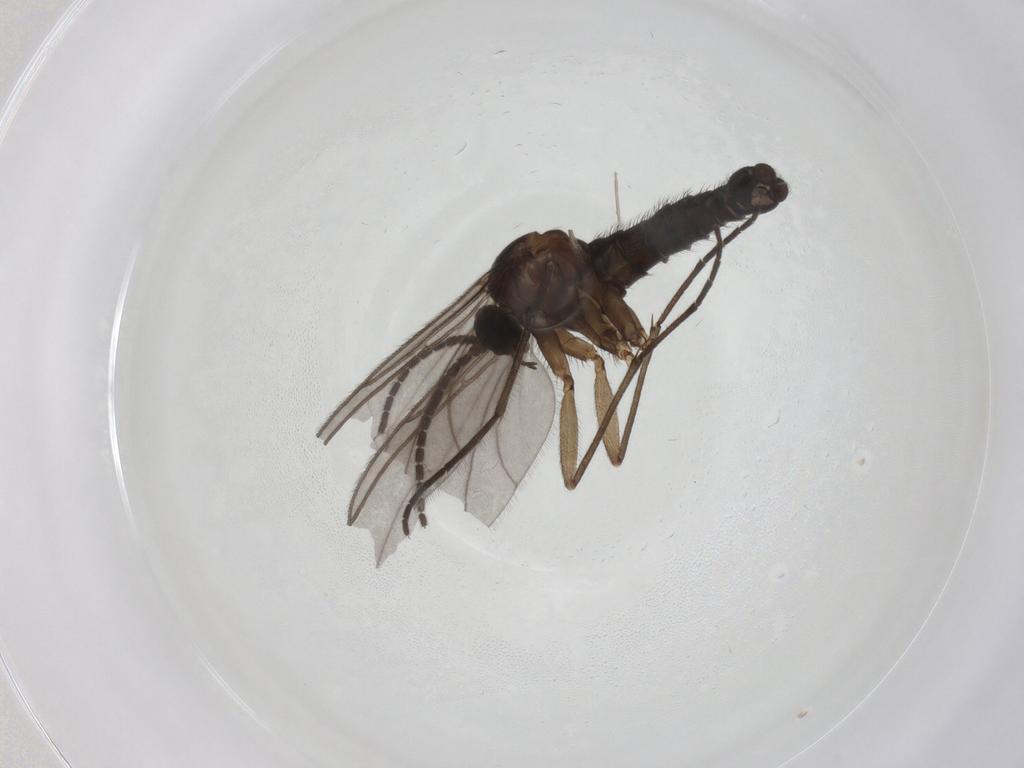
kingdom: Animalia
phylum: Arthropoda
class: Insecta
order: Diptera
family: Sciaridae
